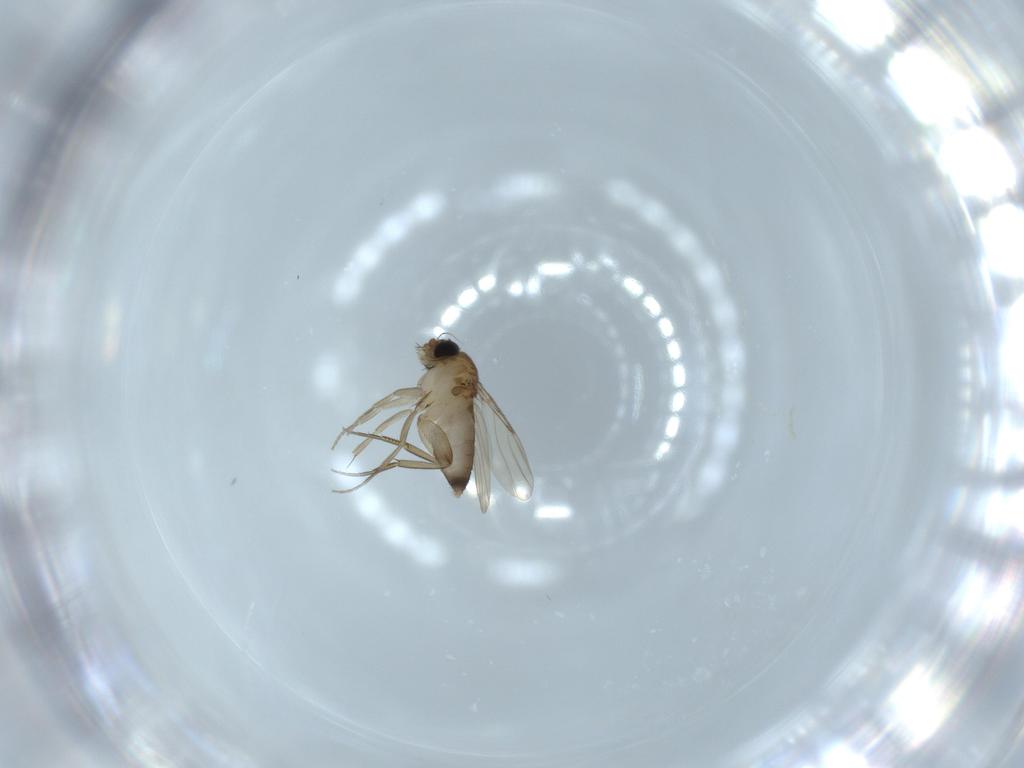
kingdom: Animalia
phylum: Arthropoda
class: Insecta
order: Diptera
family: Phoridae
